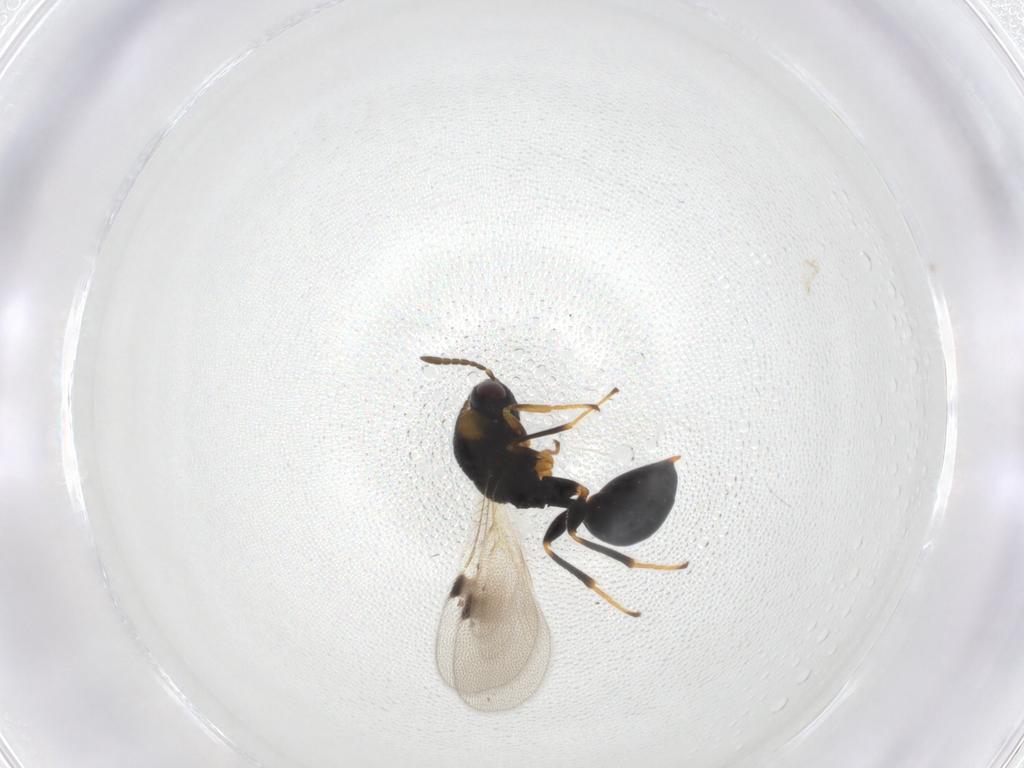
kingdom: Animalia
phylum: Arthropoda
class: Insecta
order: Hymenoptera
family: Eurytomidae
